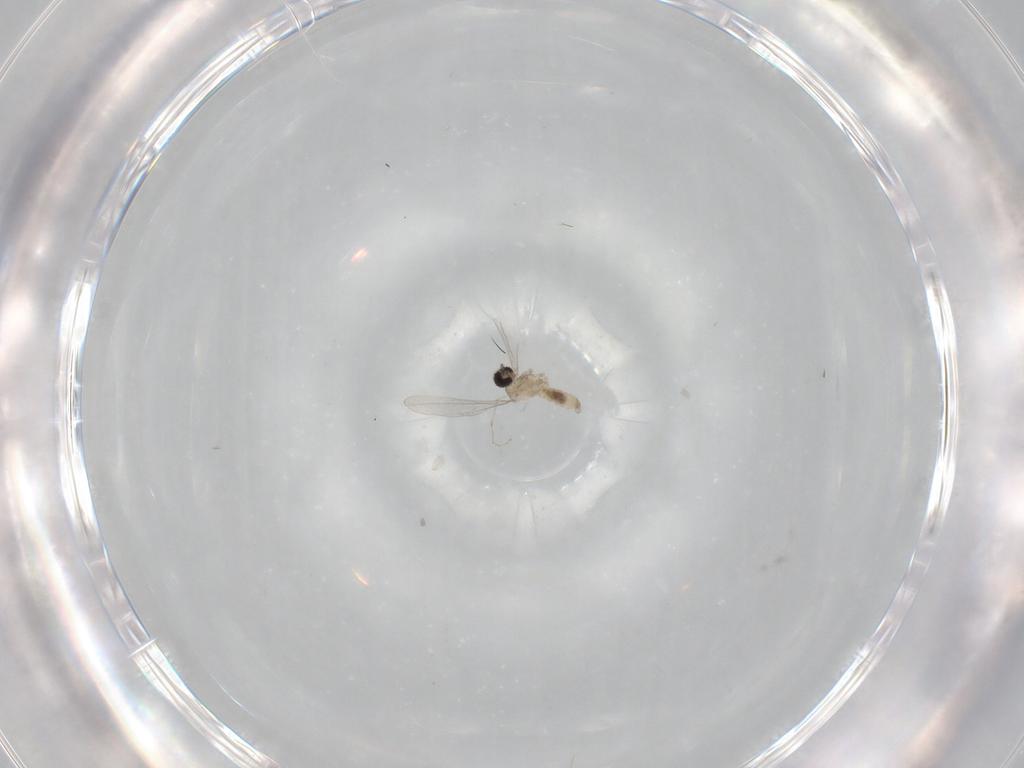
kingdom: Animalia
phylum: Arthropoda
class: Insecta
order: Diptera
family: Cecidomyiidae
